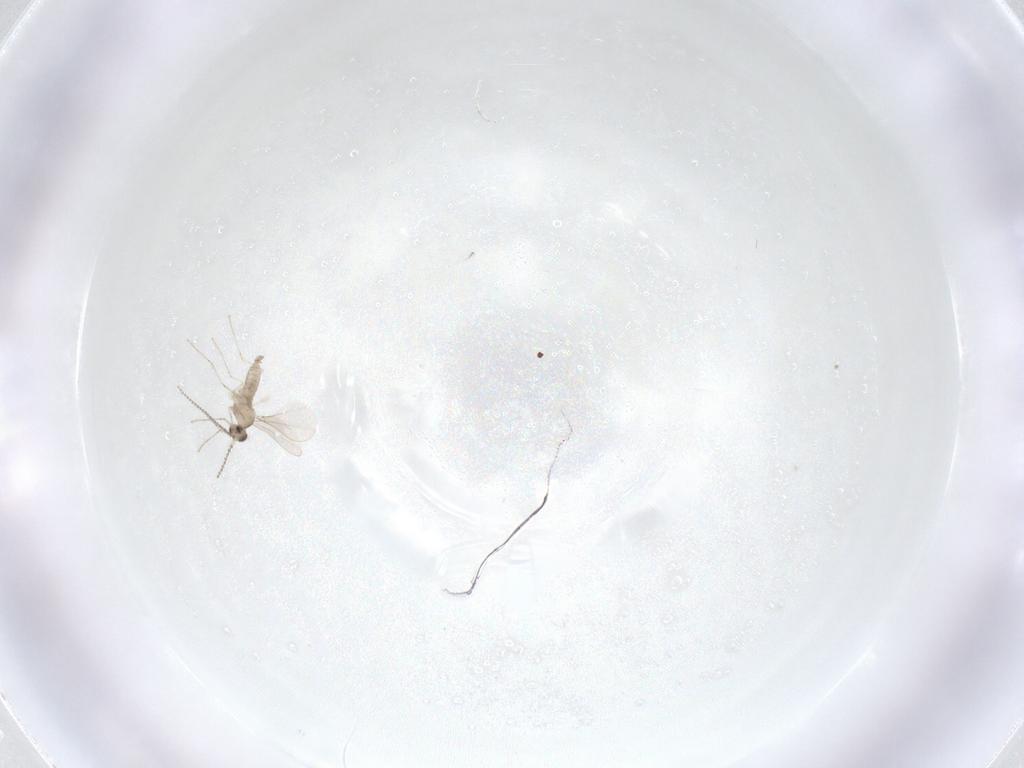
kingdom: Animalia
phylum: Arthropoda
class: Insecta
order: Diptera
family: Cecidomyiidae
